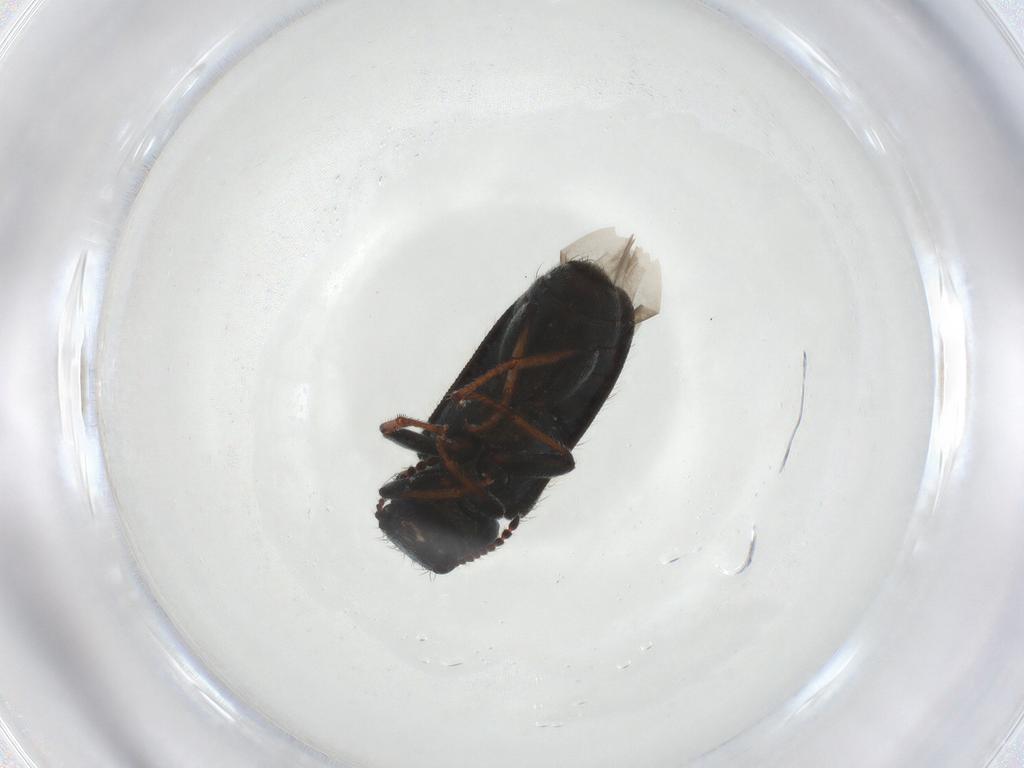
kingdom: Animalia
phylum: Arthropoda
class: Insecta
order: Coleoptera
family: Melyridae
